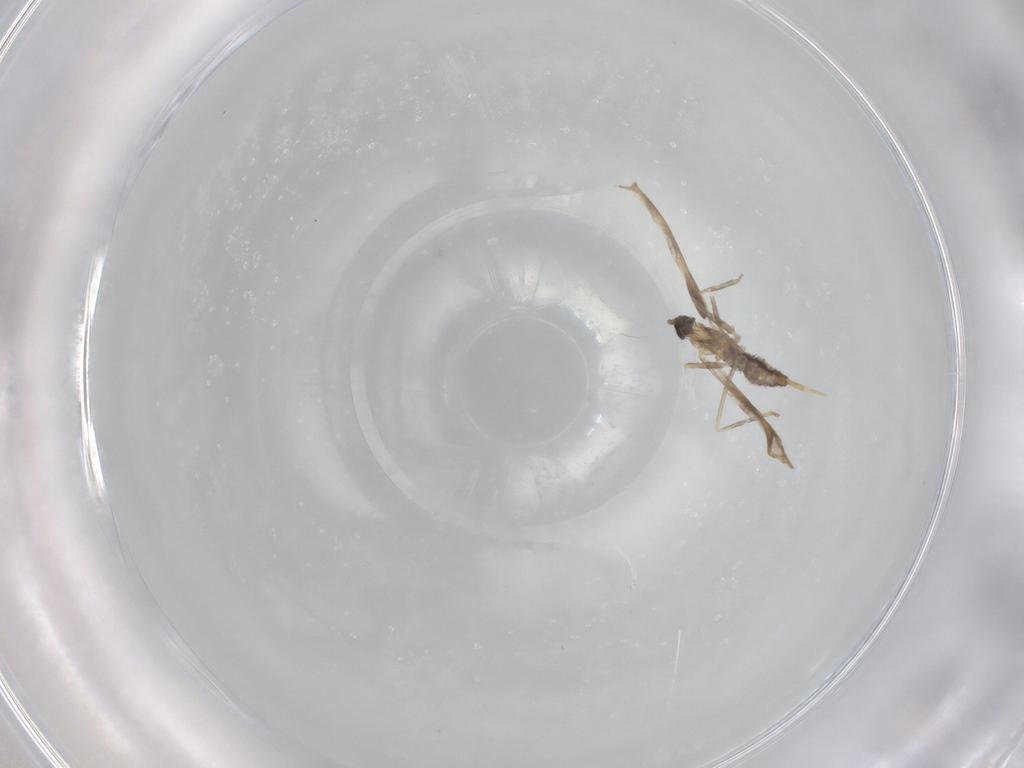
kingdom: Animalia
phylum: Arthropoda
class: Insecta
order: Diptera
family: Cecidomyiidae
